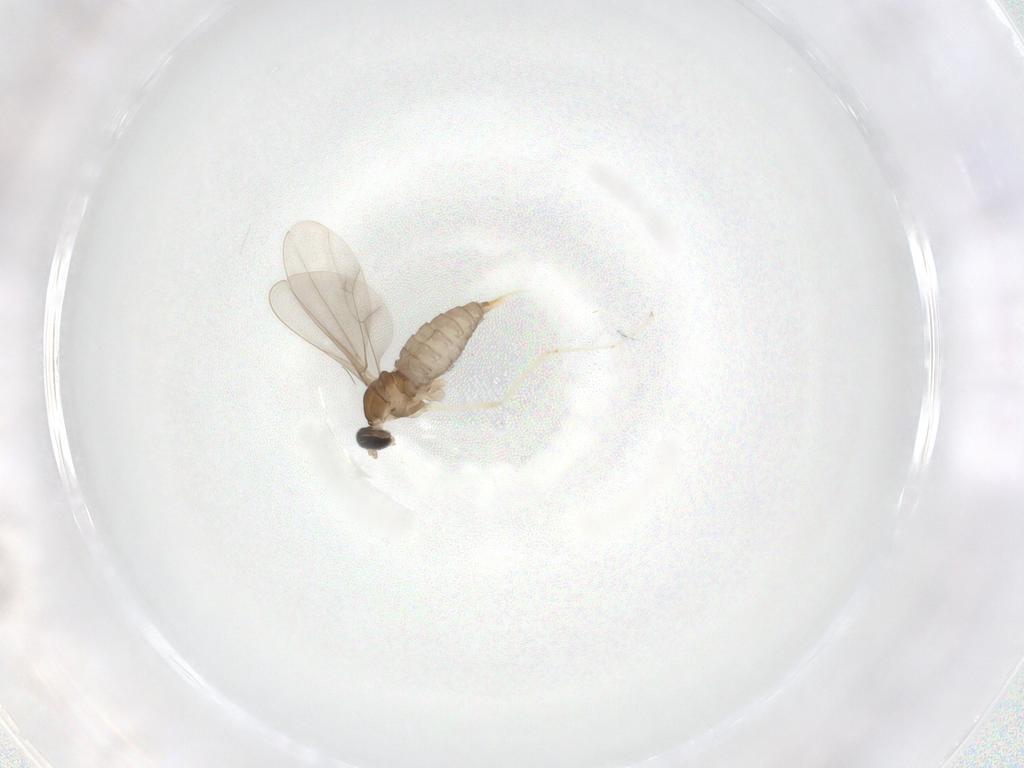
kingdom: Animalia
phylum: Arthropoda
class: Insecta
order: Diptera
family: Cecidomyiidae
